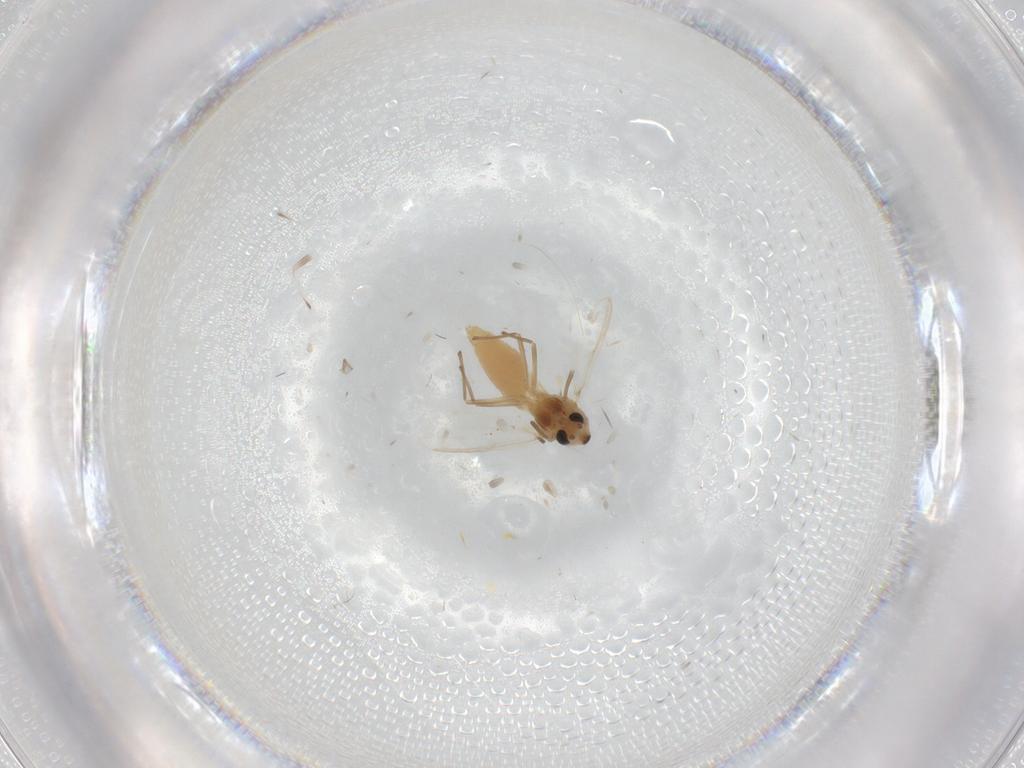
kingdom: Animalia
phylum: Arthropoda
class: Insecta
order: Diptera
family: Chironomidae
